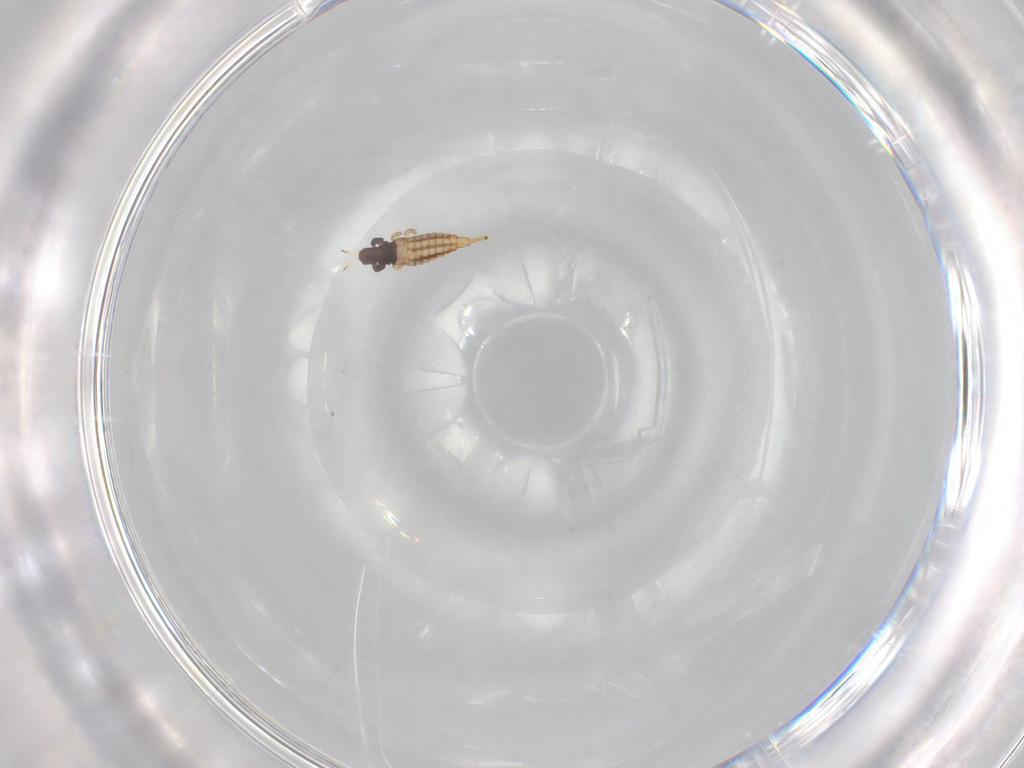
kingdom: Animalia
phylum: Arthropoda
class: Insecta
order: Thysanoptera
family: Phlaeothripidae
